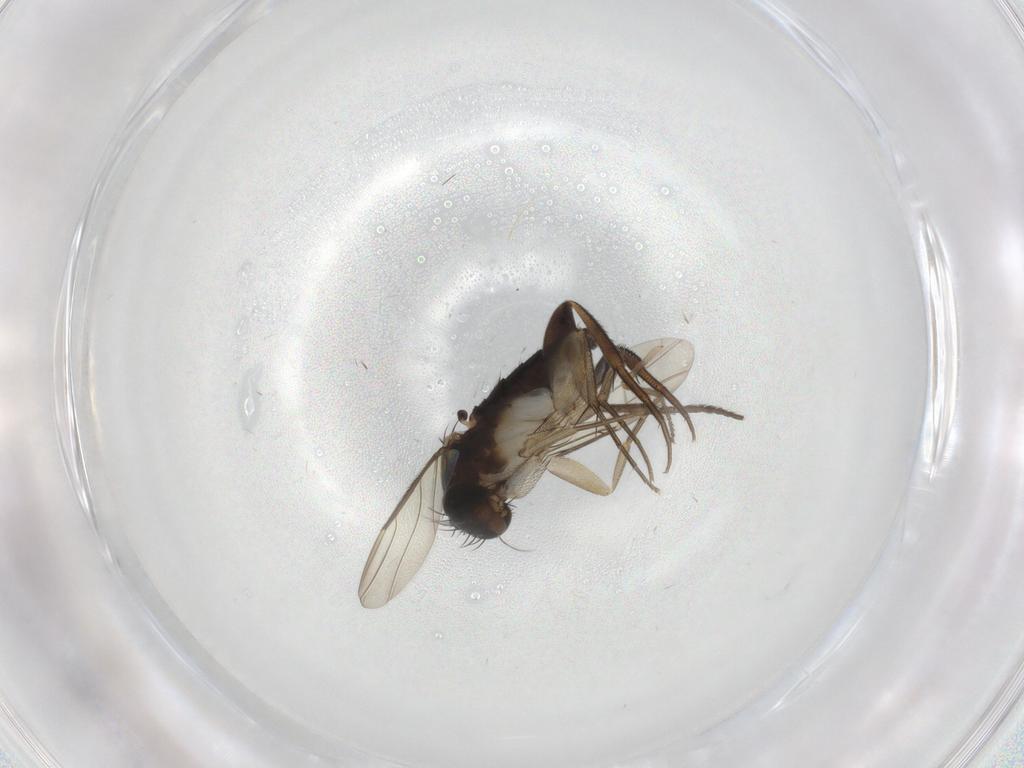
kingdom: Animalia
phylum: Arthropoda
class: Insecta
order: Diptera
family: Phoridae
